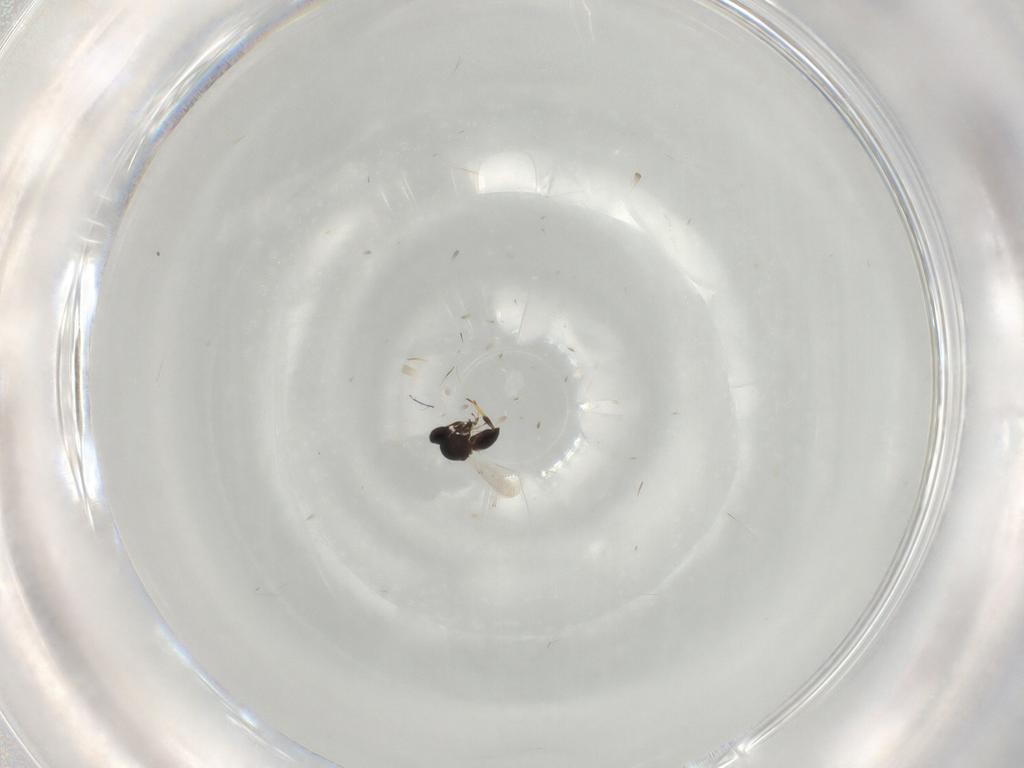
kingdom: Animalia
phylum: Arthropoda
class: Insecta
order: Hymenoptera
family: Platygastridae
